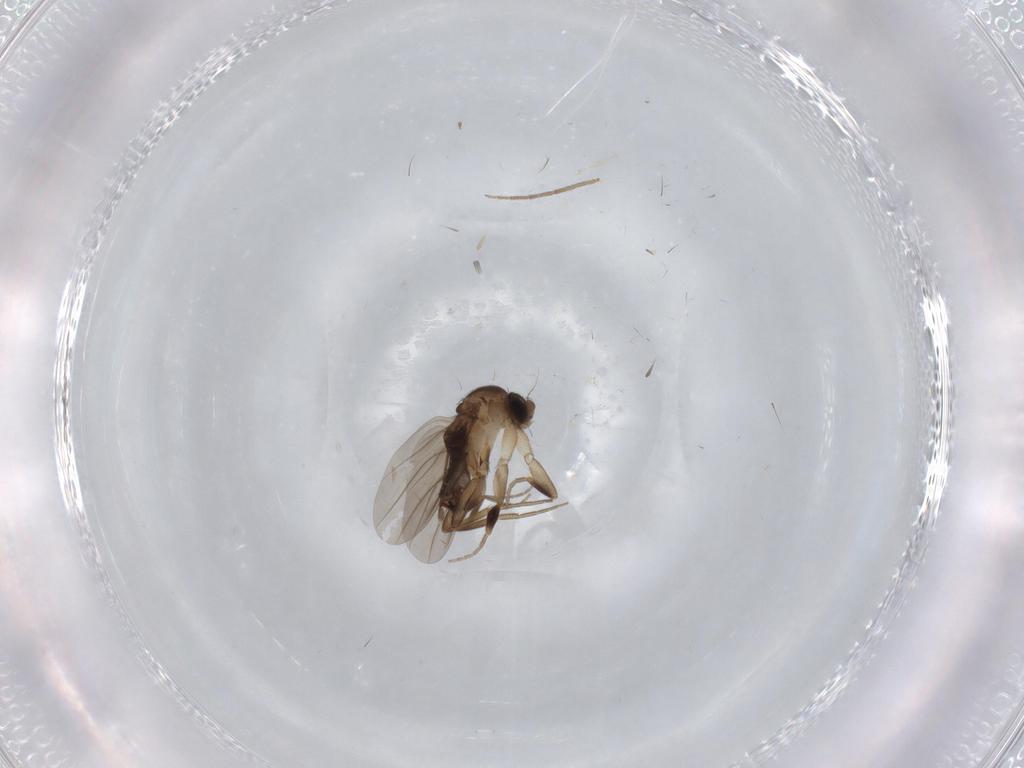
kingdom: Animalia
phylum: Arthropoda
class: Insecta
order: Diptera
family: Phoridae
